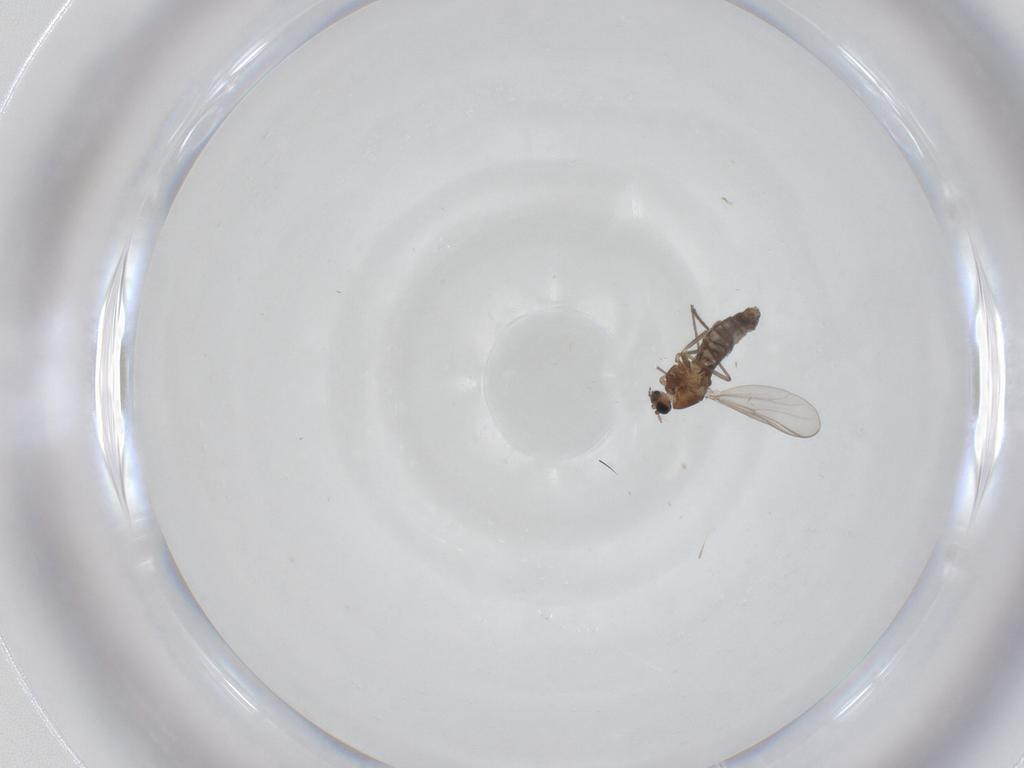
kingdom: Animalia
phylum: Arthropoda
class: Insecta
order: Diptera
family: Chironomidae
